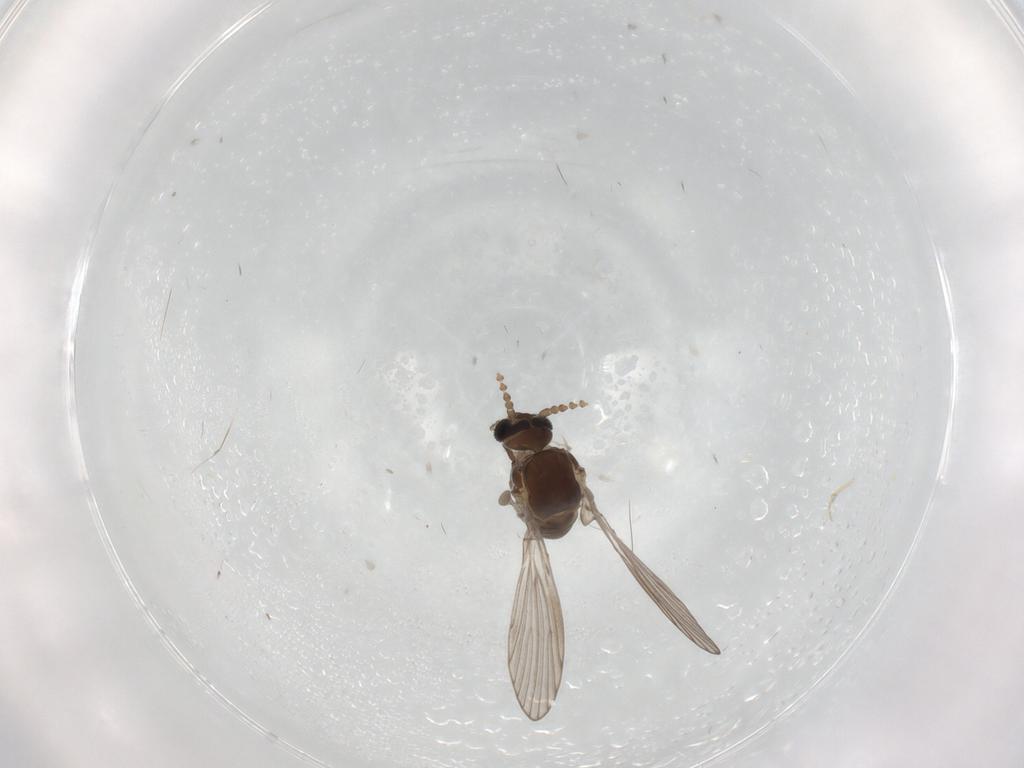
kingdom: Animalia
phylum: Arthropoda
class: Insecta
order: Diptera
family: Psychodidae
